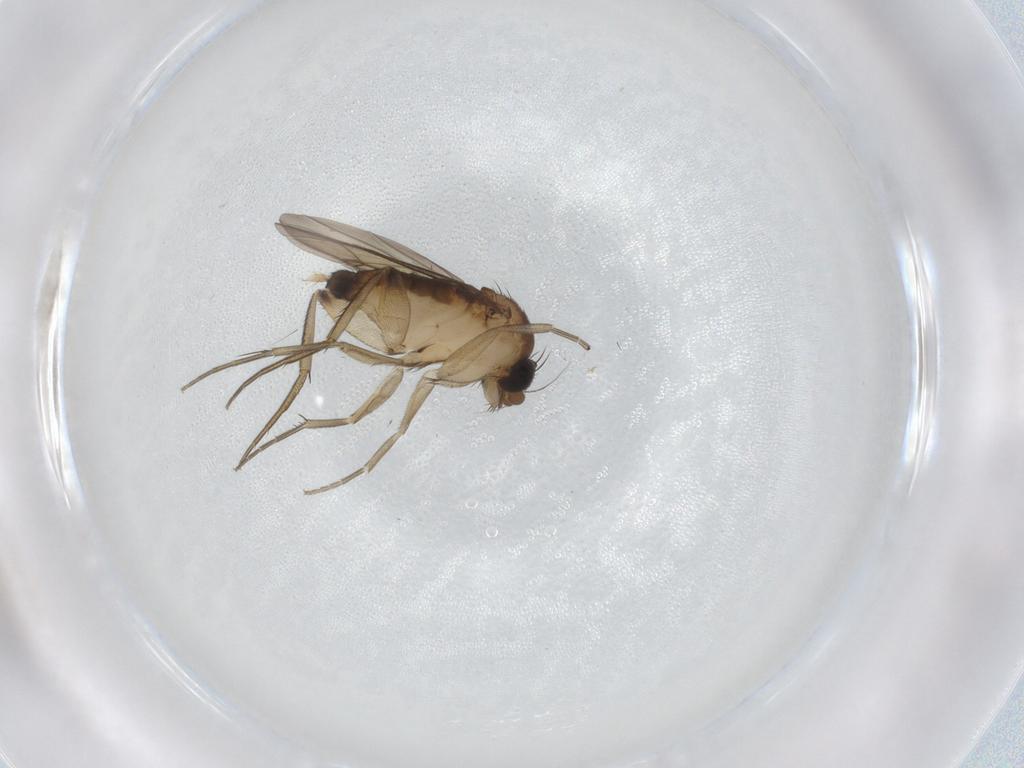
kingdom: Animalia
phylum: Arthropoda
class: Insecta
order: Diptera
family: Phoridae
